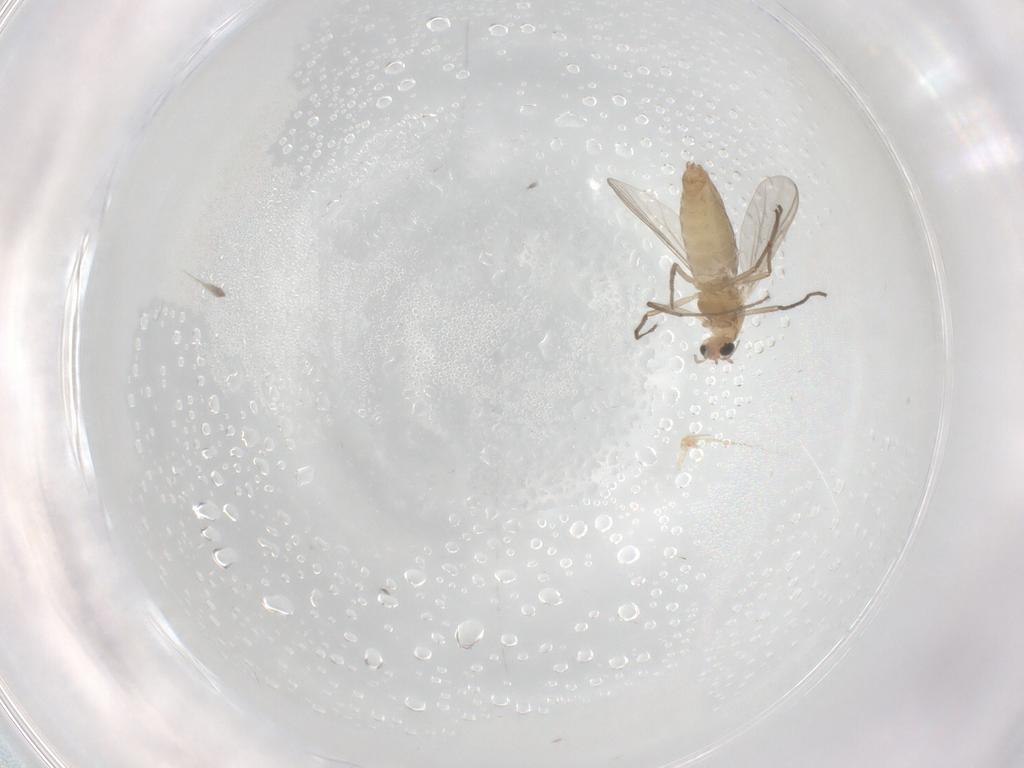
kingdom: Animalia
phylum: Arthropoda
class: Insecta
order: Diptera
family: Chironomidae
